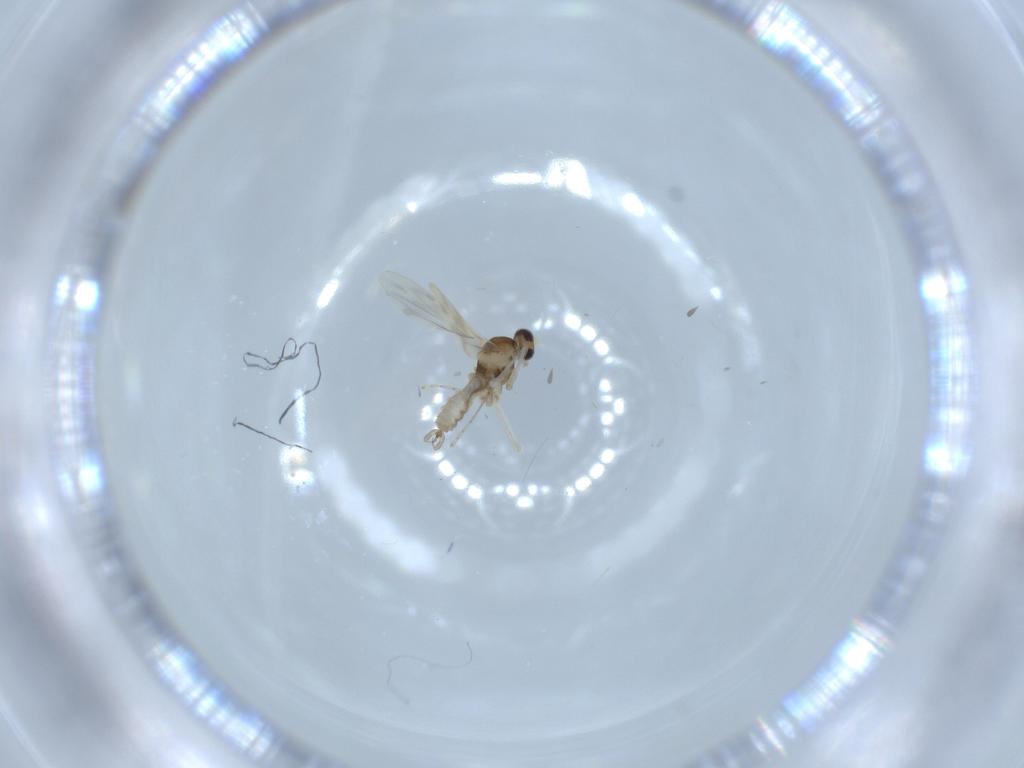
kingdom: Animalia
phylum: Arthropoda
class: Insecta
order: Diptera
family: Cecidomyiidae
